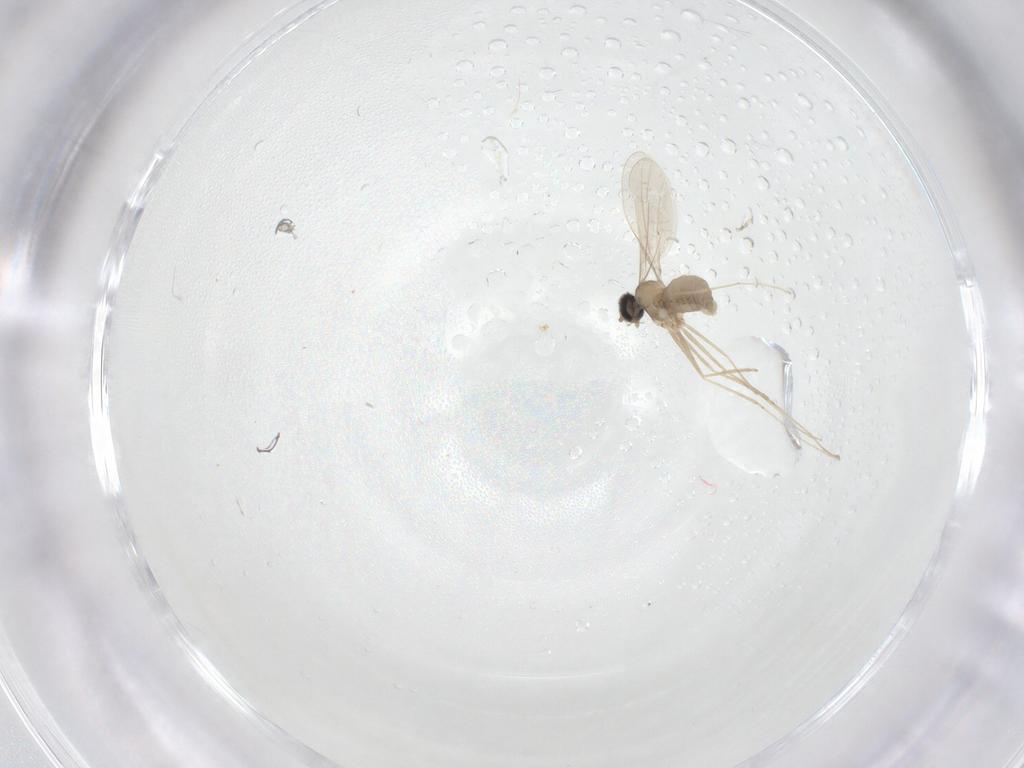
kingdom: Animalia
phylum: Arthropoda
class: Insecta
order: Diptera
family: Cecidomyiidae
